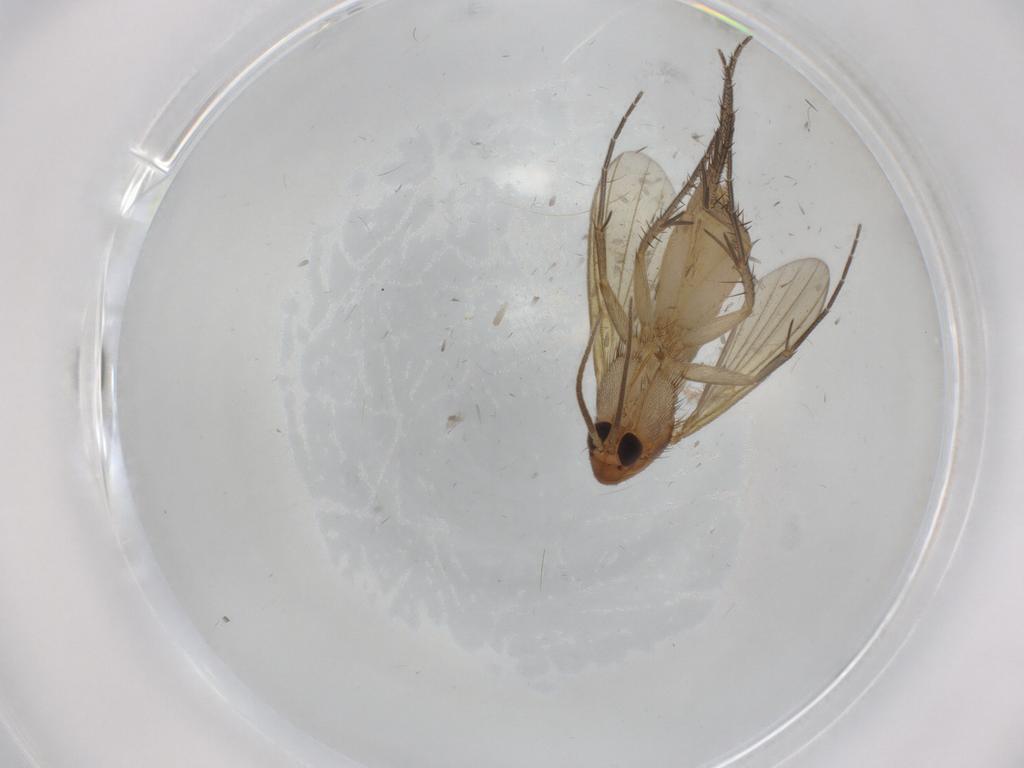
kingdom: Animalia
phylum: Arthropoda
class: Insecta
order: Diptera
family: Mycetophilidae
